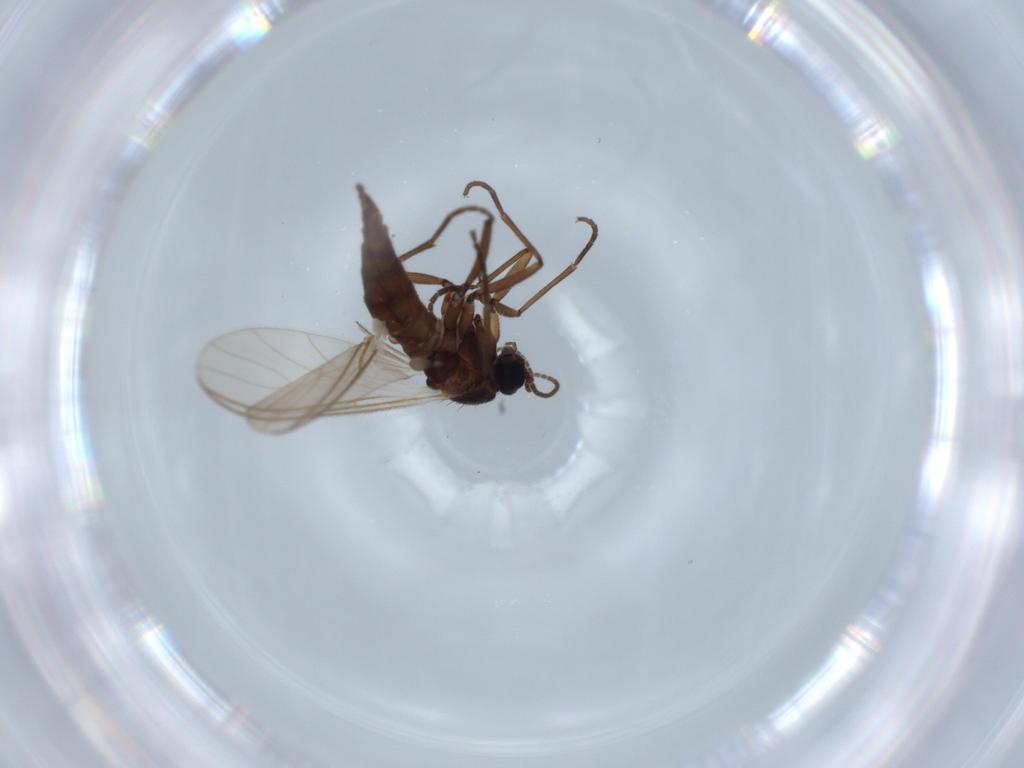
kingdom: Animalia
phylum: Arthropoda
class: Insecta
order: Diptera
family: Sciaridae
